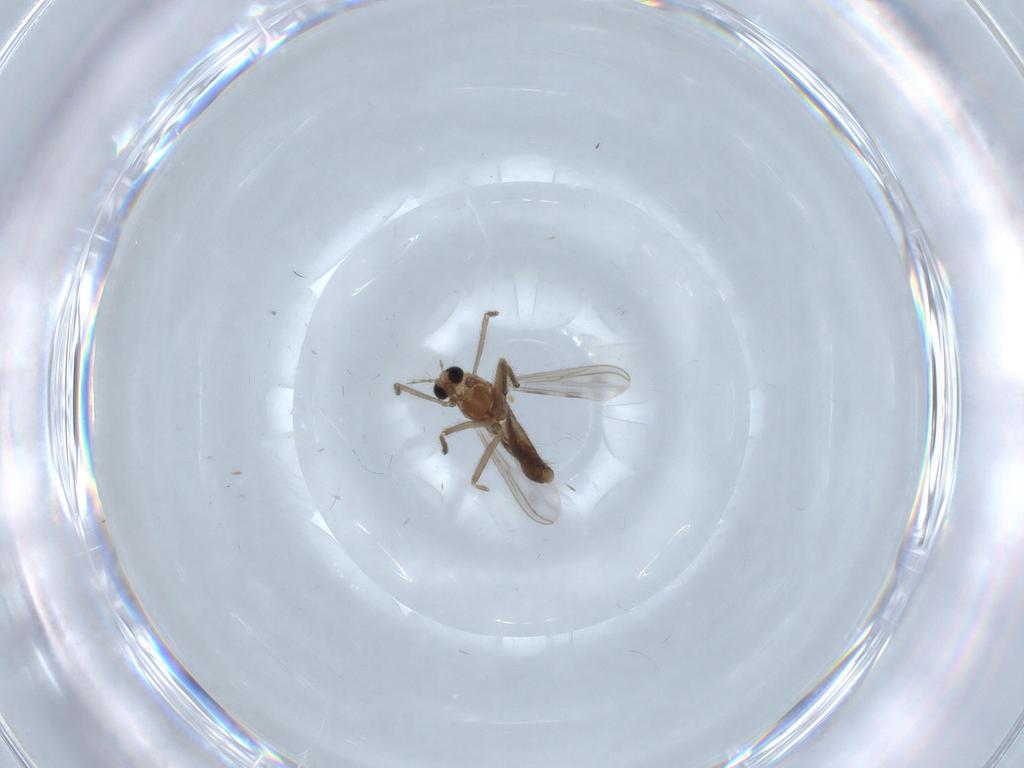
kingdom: Animalia
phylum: Arthropoda
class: Insecta
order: Diptera
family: Chironomidae
